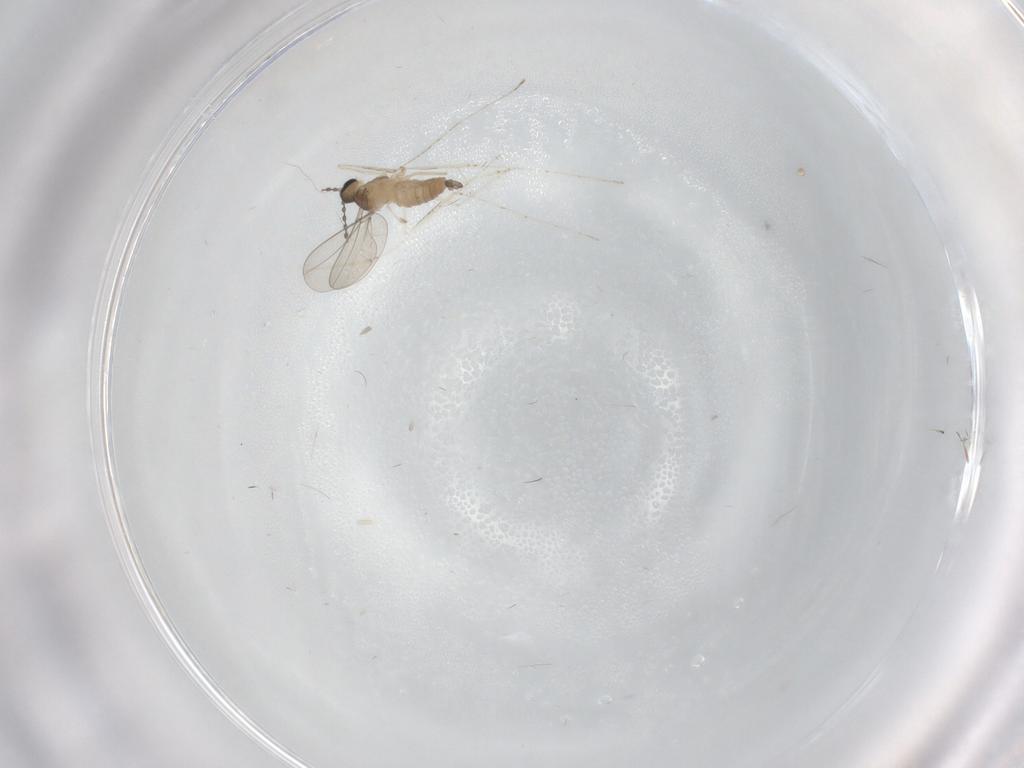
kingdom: Animalia
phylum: Arthropoda
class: Insecta
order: Diptera
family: Chironomidae
